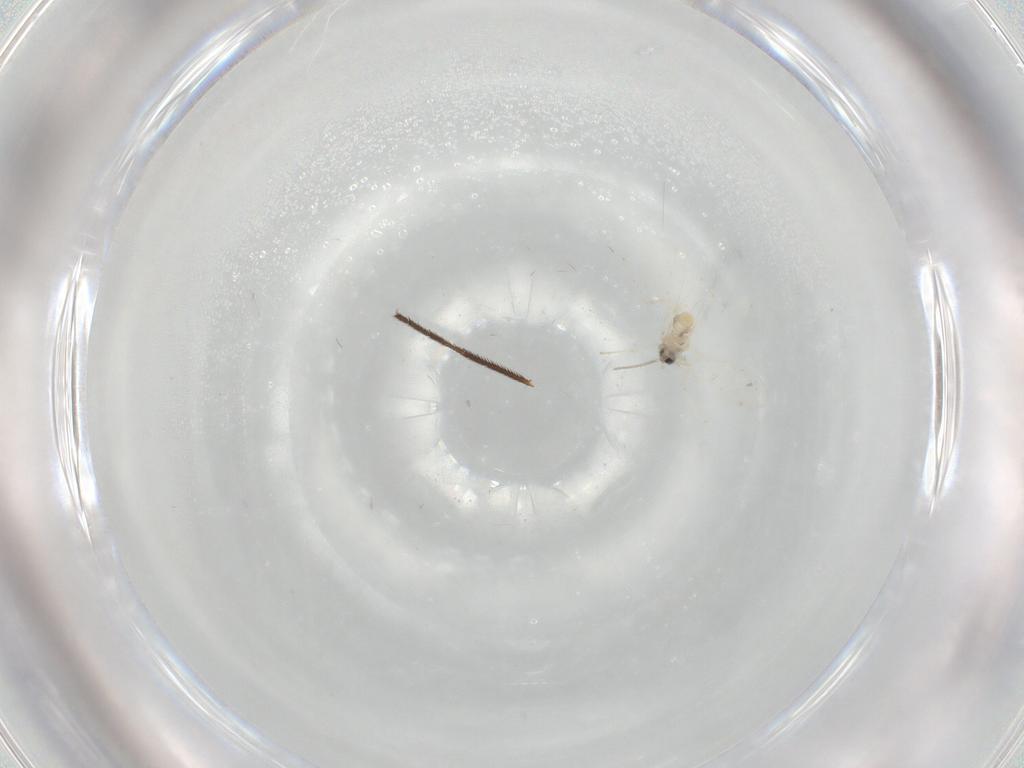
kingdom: Animalia
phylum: Arthropoda
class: Insecta
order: Diptera
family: Cecidomyiidae
